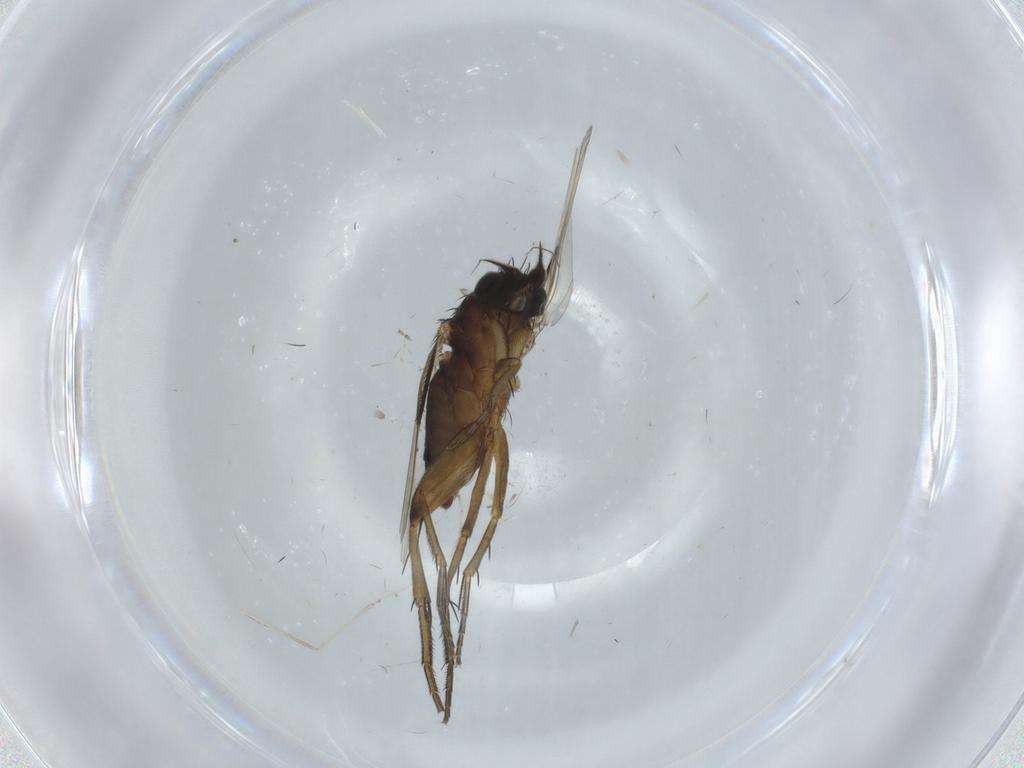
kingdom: Animalia
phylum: Arthropoda
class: Insecta
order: Diptera
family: Phoridae
